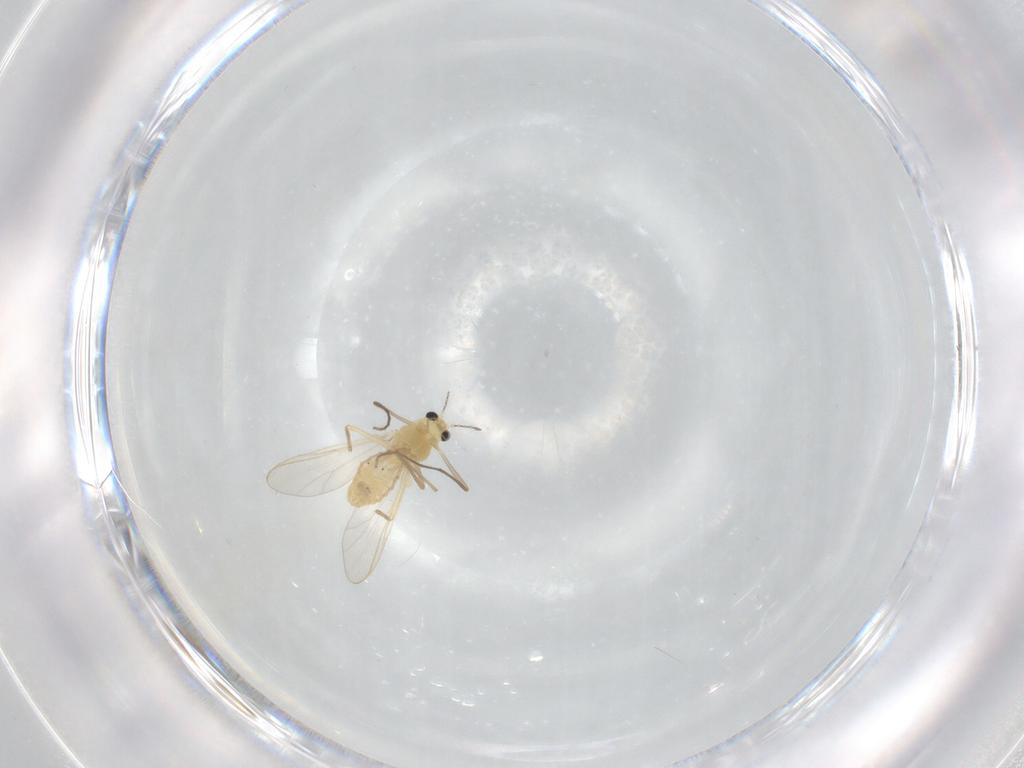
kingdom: Animalia
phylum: Arthropoda
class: Insecta
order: Diptera
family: Chironomidae
